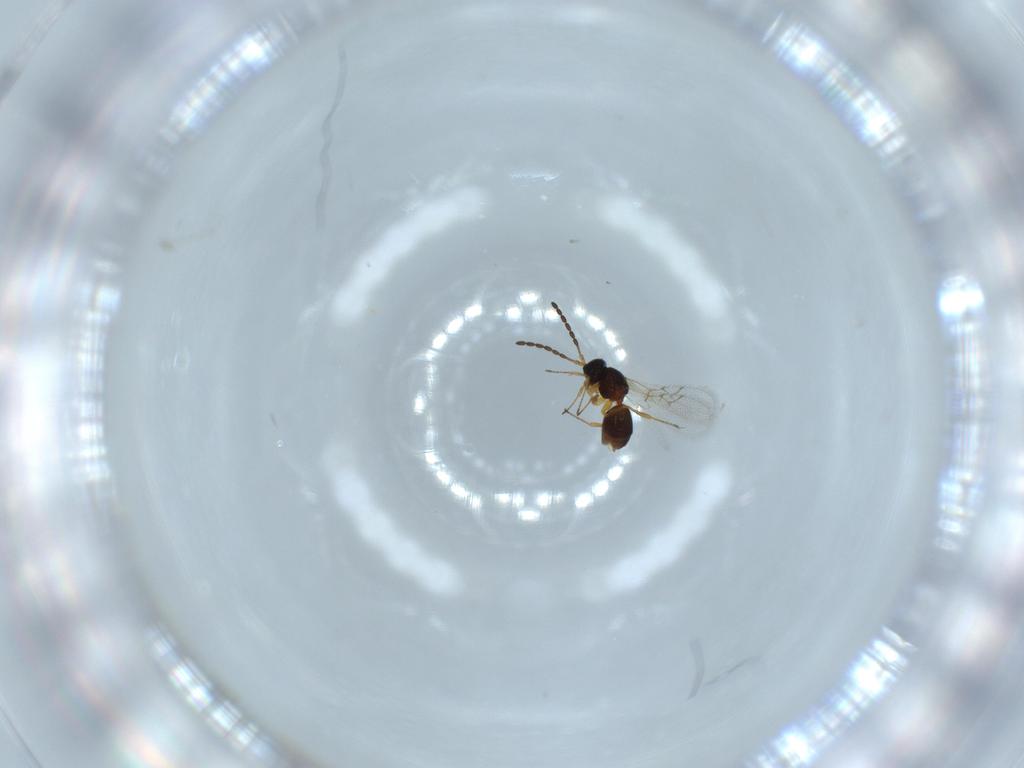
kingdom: Animalia
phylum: Arthropoda
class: Insecta
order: Hymenoptera
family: Figitidae
